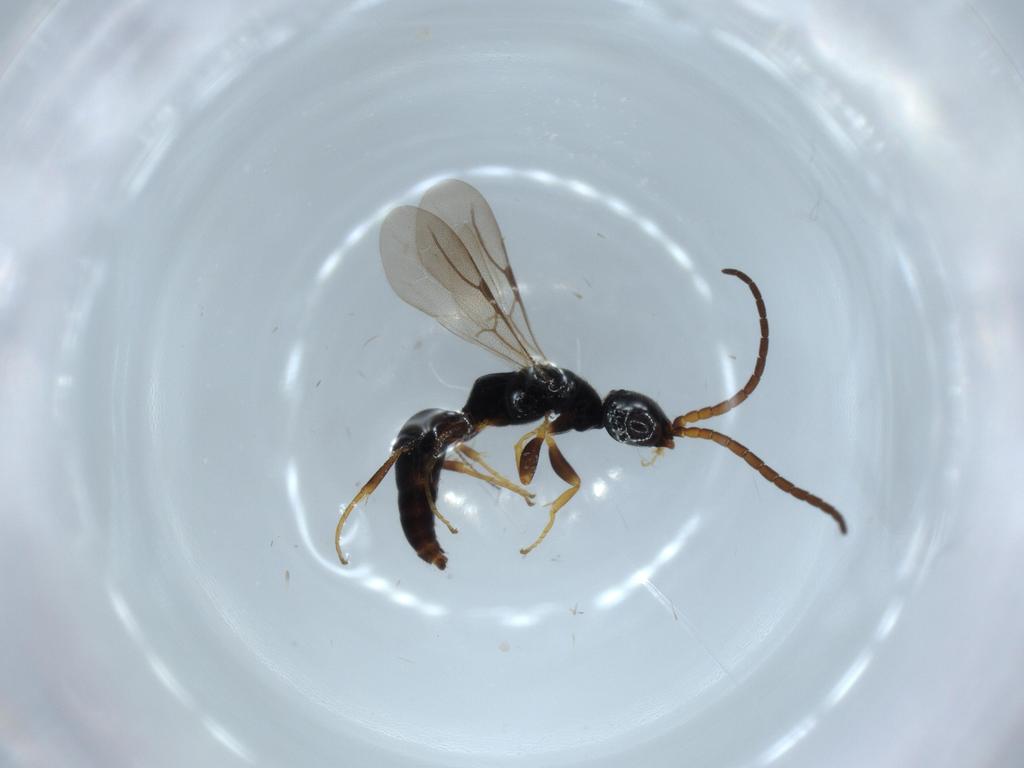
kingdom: Animalia
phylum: Arthropoda
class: Insecta
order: Hymenoptera
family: Bethylidae
